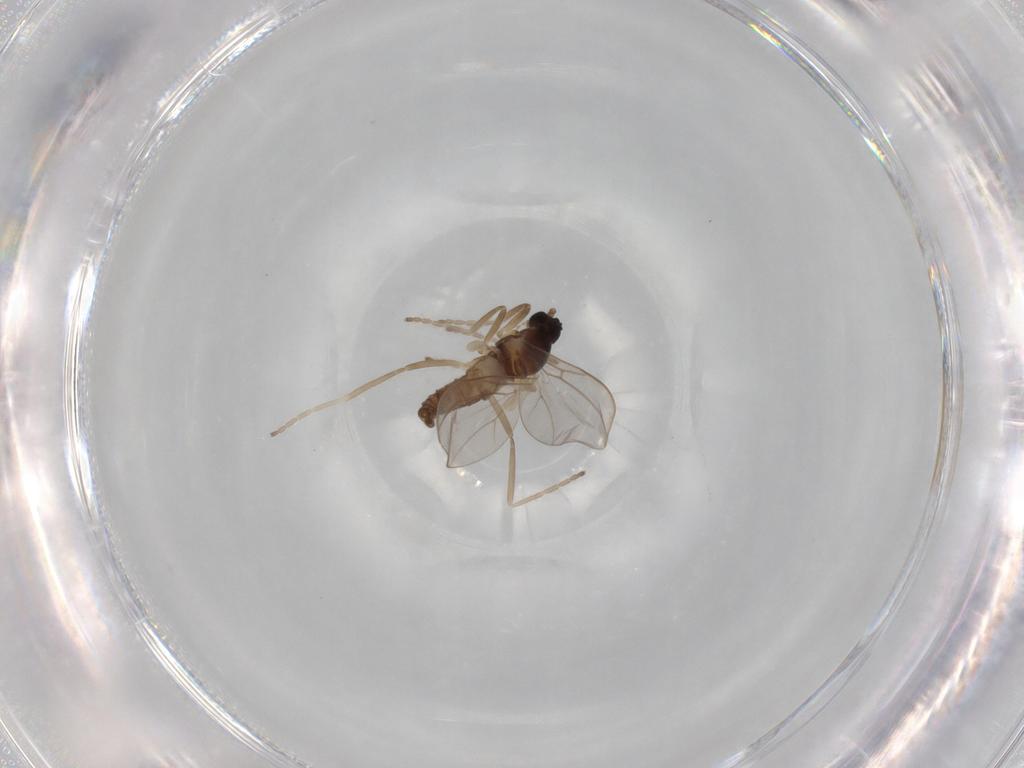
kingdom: Animalia
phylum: Arthropoda
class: Insecta
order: Diptera
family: Cecidomyiidae
